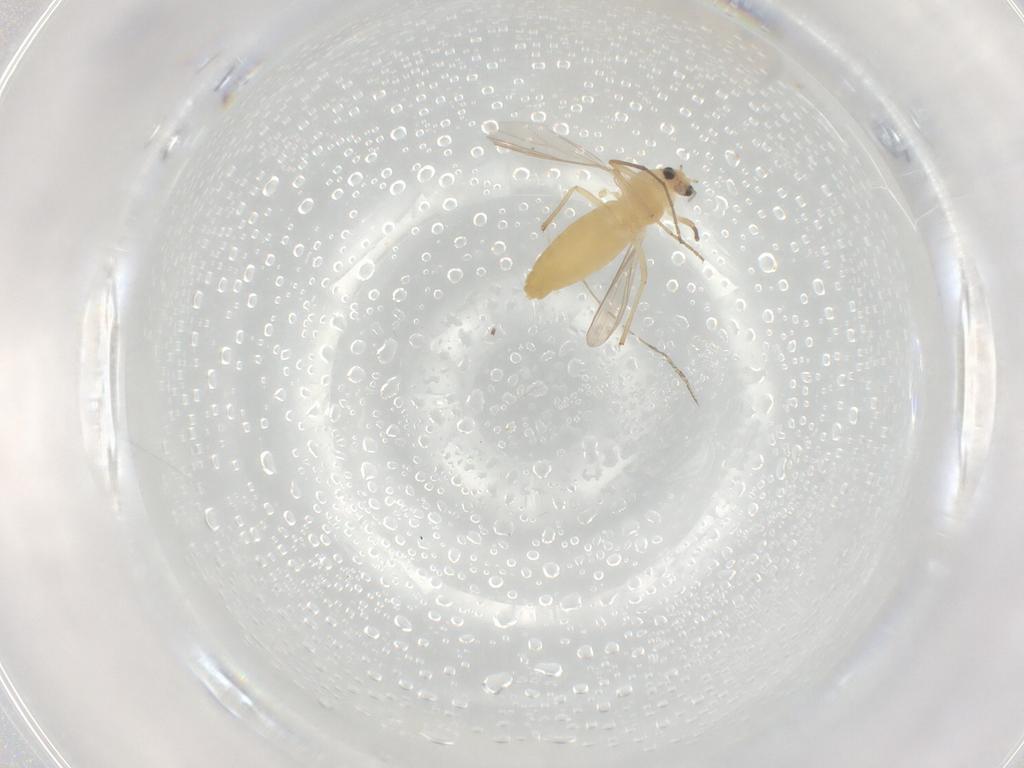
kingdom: Animalia
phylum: Arthropoda
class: Insecta
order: Diptera
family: Chironomidae
